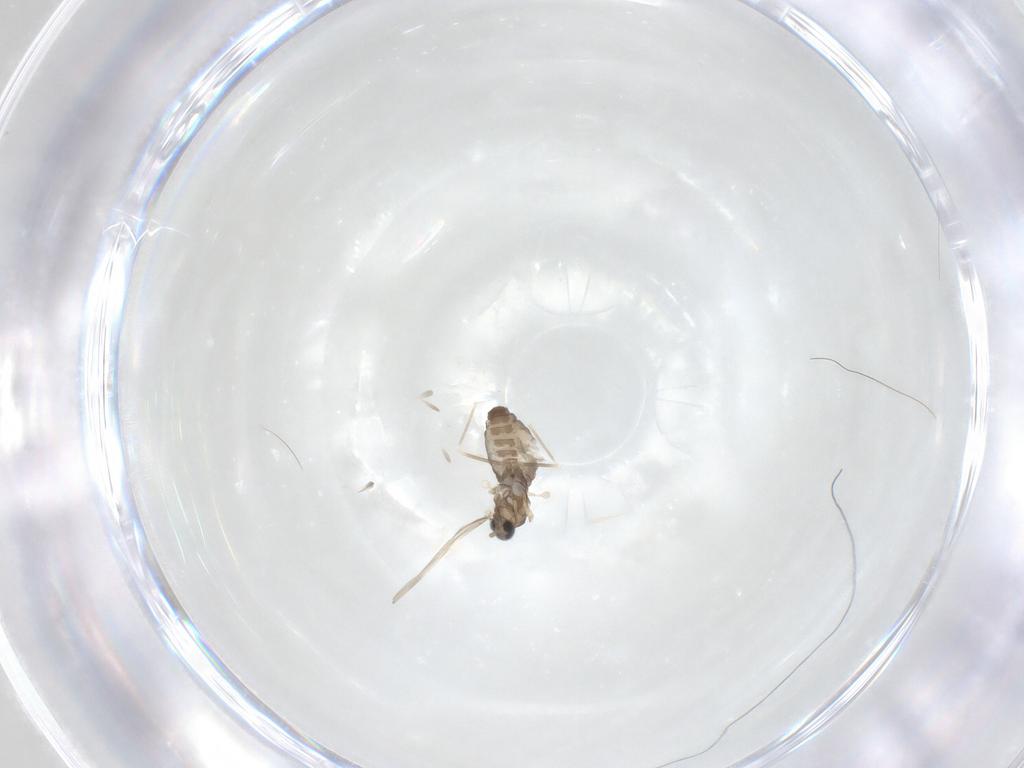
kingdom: Animalia
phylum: Arthropoda
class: Insecta
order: Diptera
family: Cecidomyiidae
